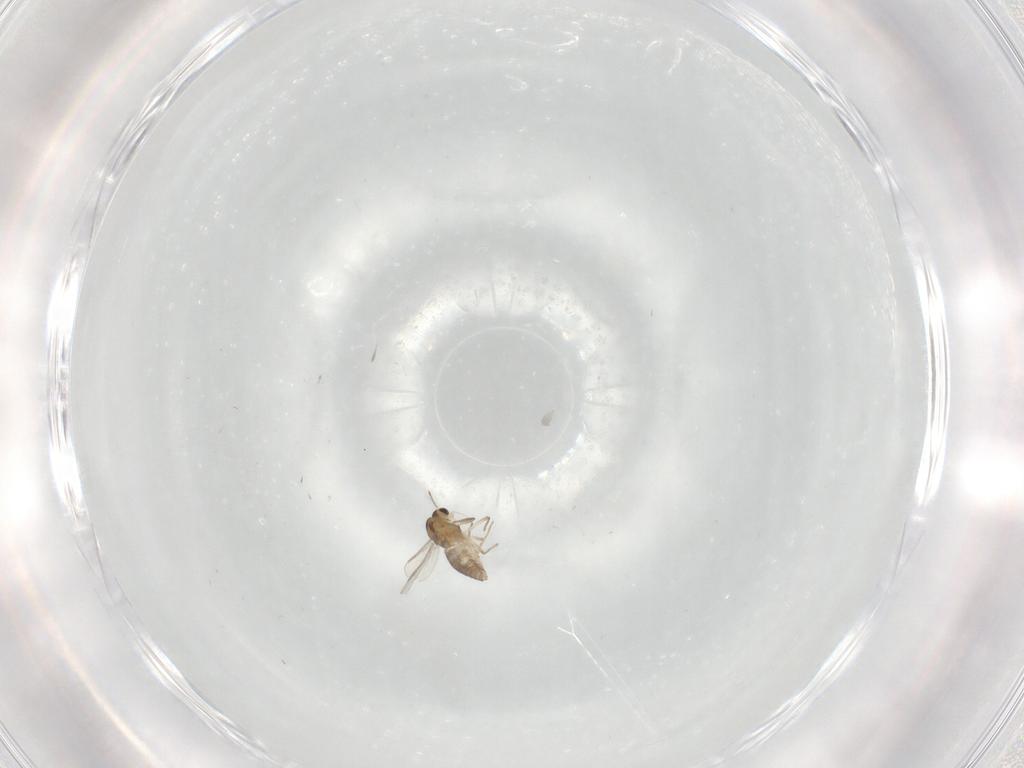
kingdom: Animalia
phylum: Arthropoda
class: Insecta
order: Diptera
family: Chironomidae
